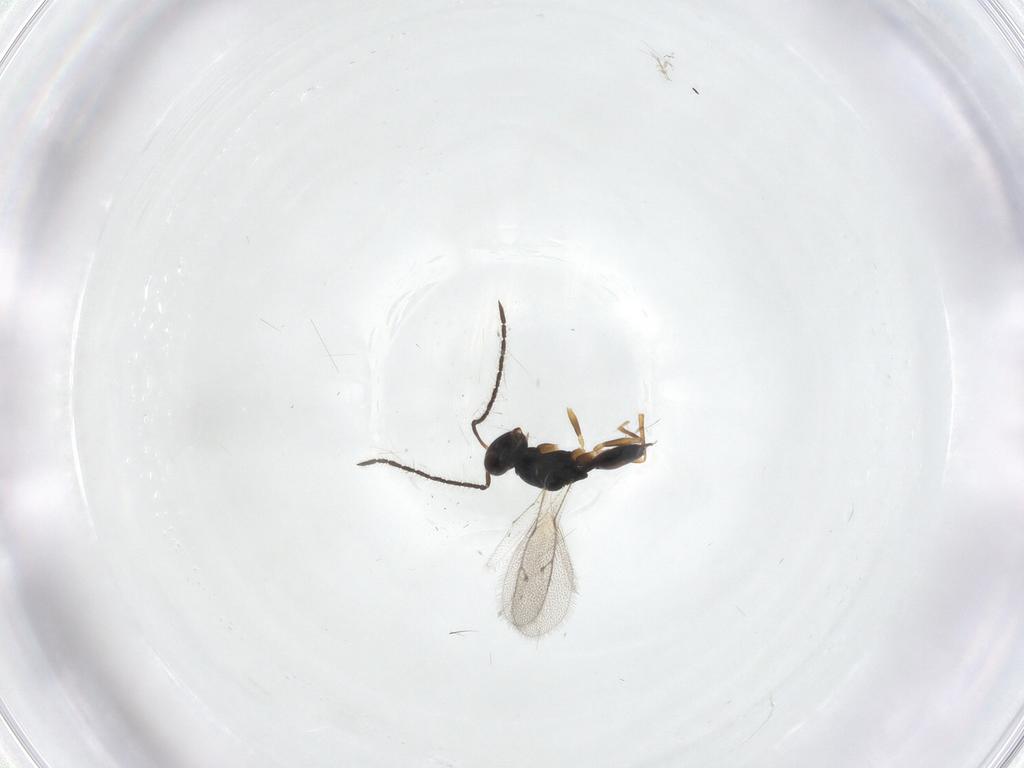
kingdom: Animalia
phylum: Arthropoda
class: Insecta
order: Hymenoptera
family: Pteromalidae
